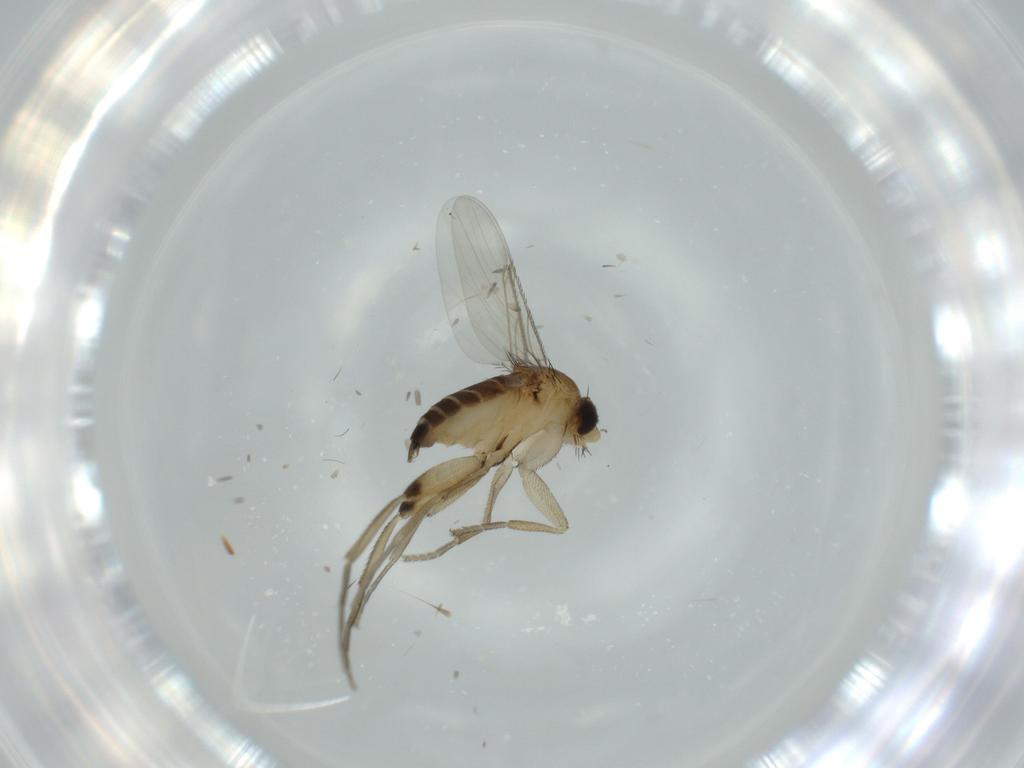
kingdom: Animalia
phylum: Arthropoda
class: Insecta
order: Diptera
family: Phoridae
